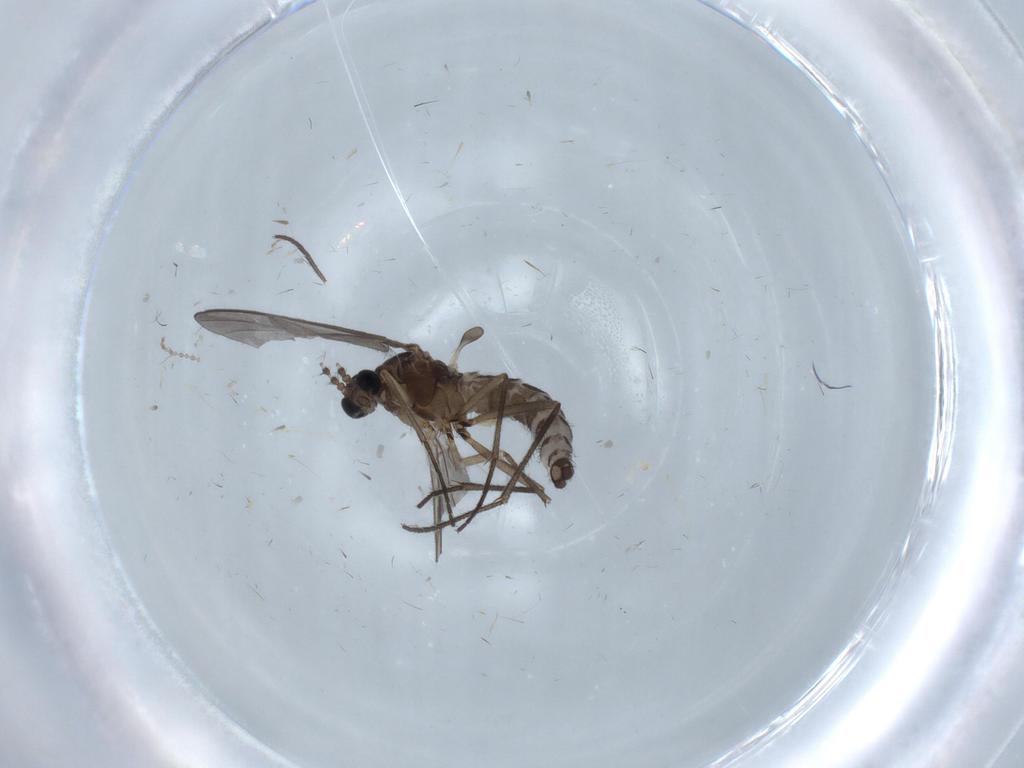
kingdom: Animalia
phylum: Arthropoda
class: Insecta
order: Diptera
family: Sciaridae
